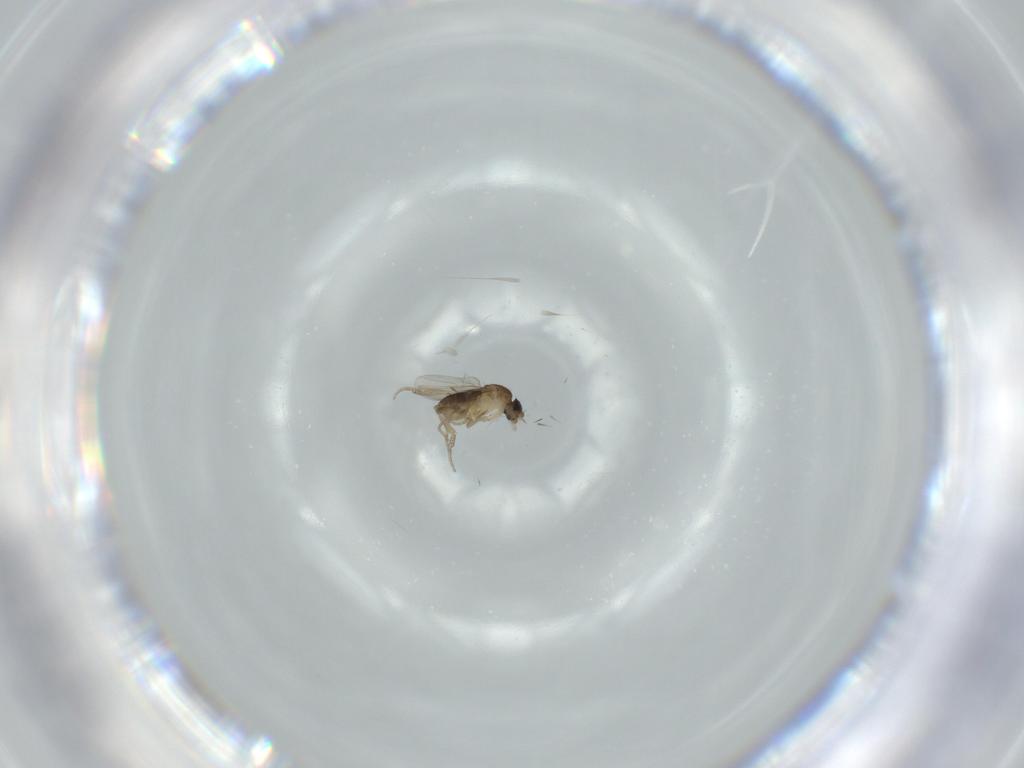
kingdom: Animalia
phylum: Arthropoda
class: Insecta
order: Diptera
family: Phoridae
